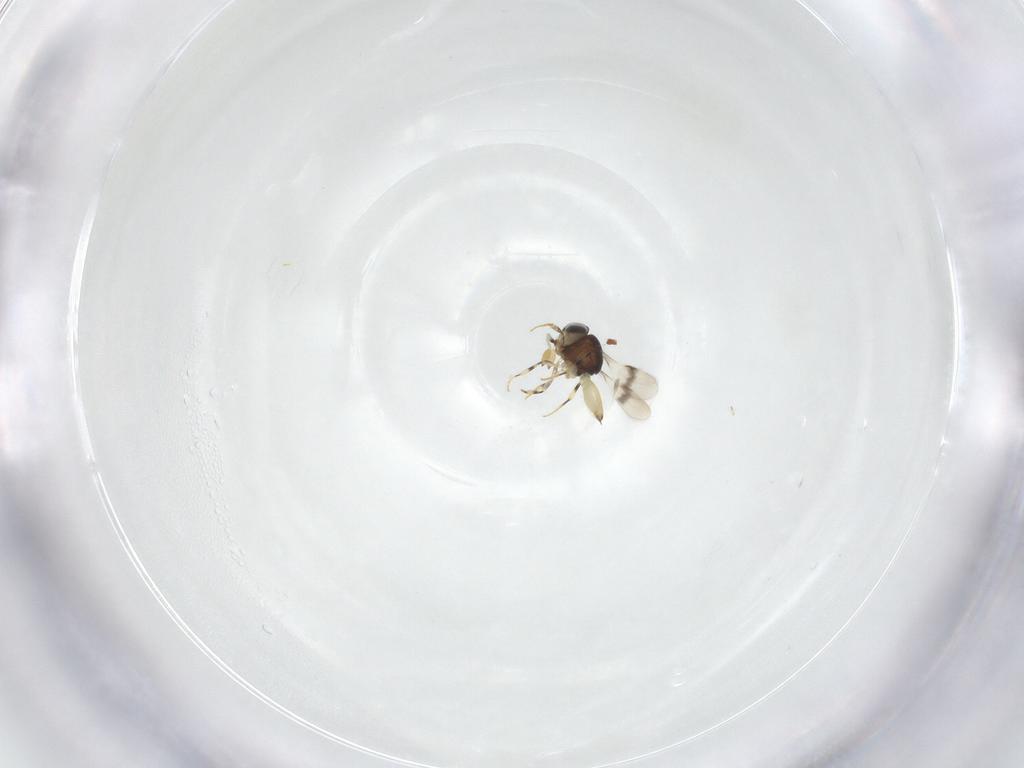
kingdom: Animalia
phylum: Arthropoda
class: Insecta
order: Hymenoptera
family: Scelionidae
